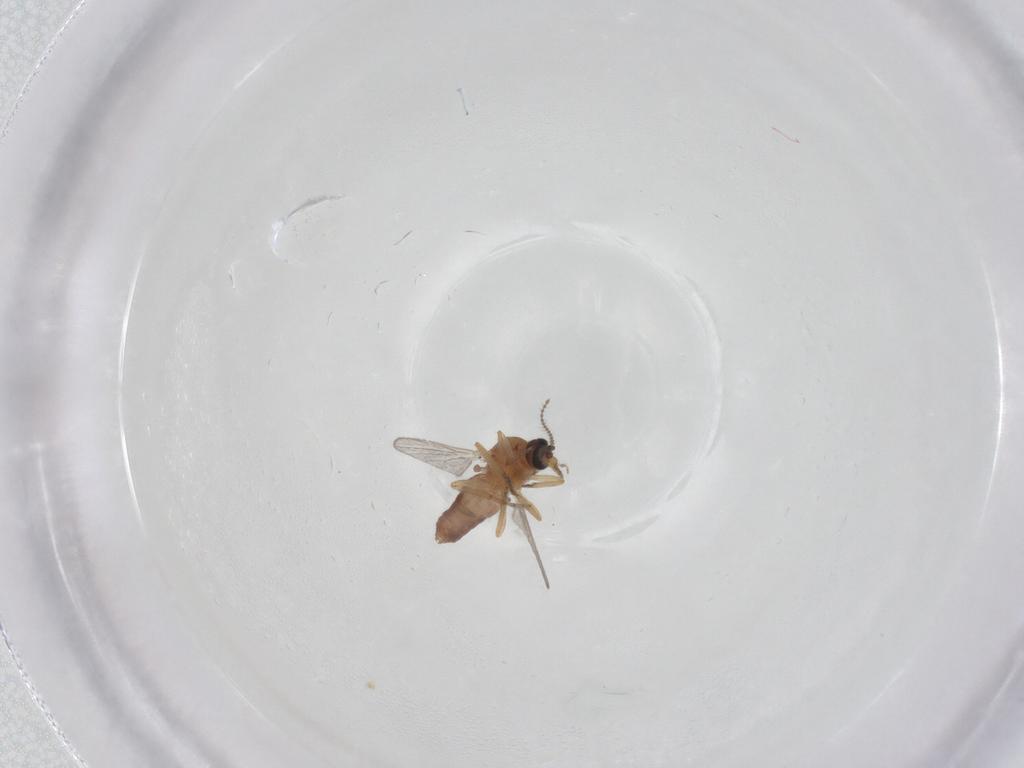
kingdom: Animalia
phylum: Arthropoda
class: Insecta
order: Diptera
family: Ceratopogonidae
